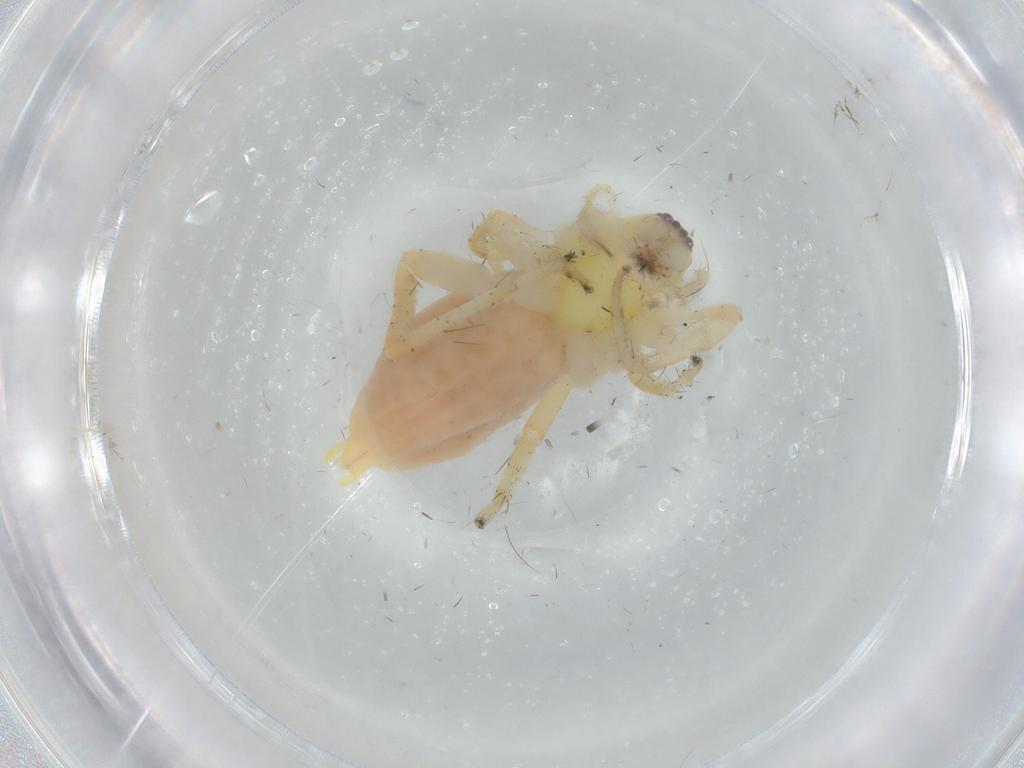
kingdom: Animalia
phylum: Arthropoda
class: Arachnida
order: Araneae
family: Anyphaenidae
